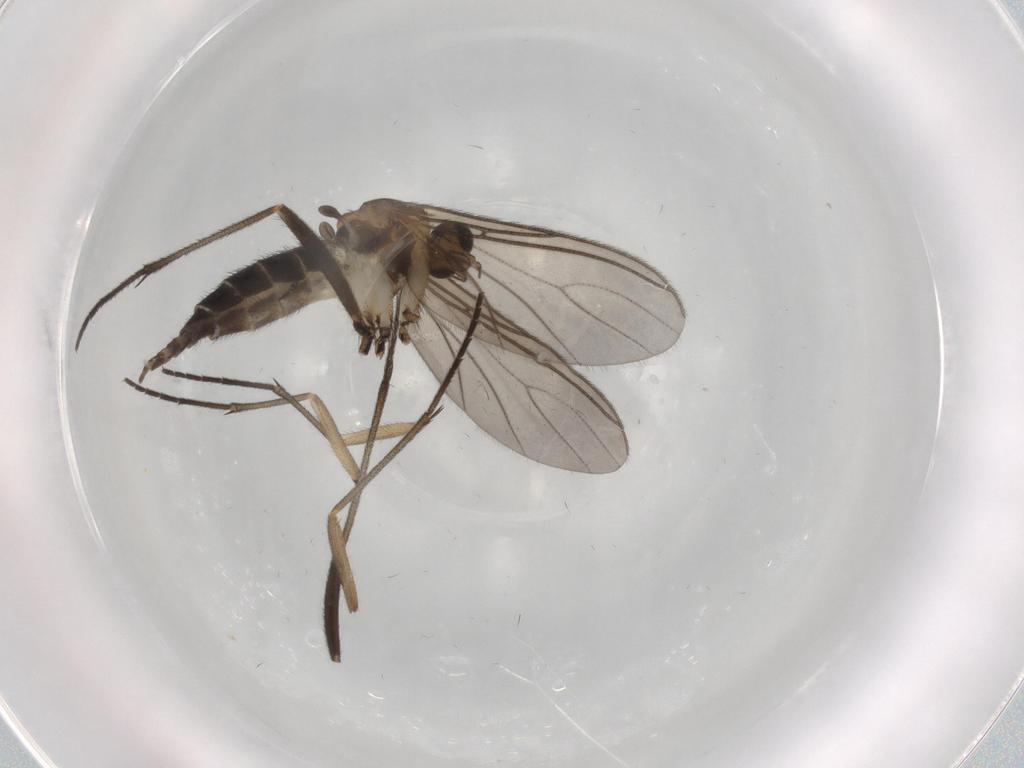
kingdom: Animalia
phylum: Arthropoda
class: Insecta
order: Diptera
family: Sciaridae
